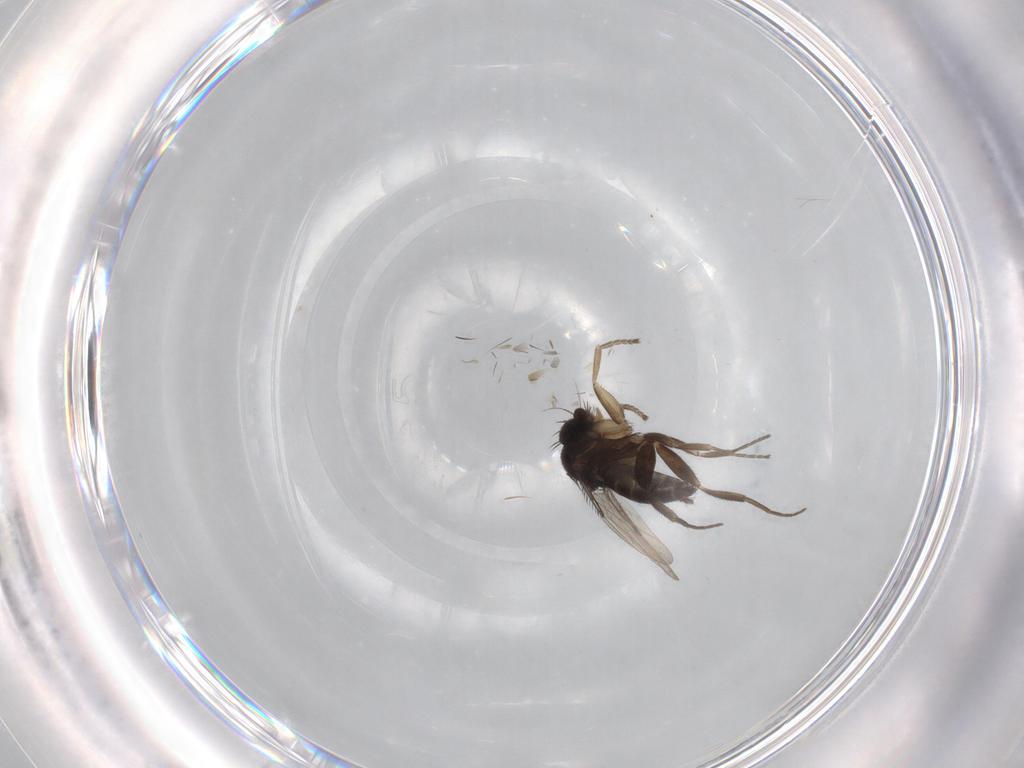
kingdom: Animalia
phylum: Arthropoda
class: Insecta
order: Diptera
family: Phoridae
